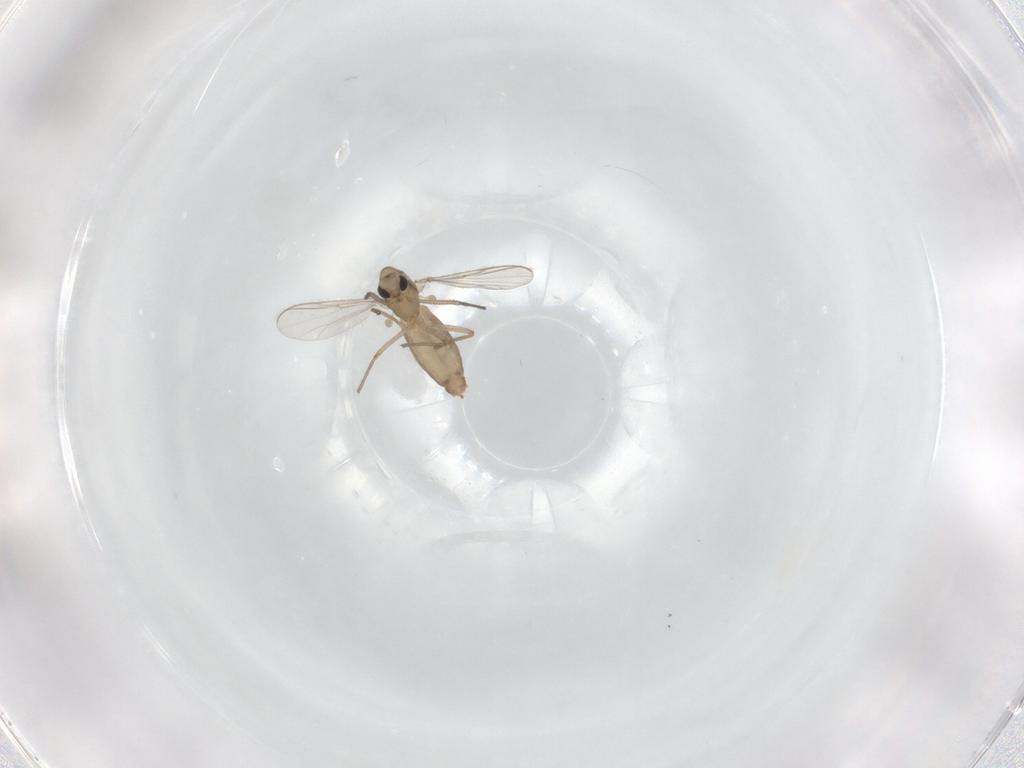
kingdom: Animalia
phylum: Arthropoda
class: Insecta
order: Diptera
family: Chironomidae
